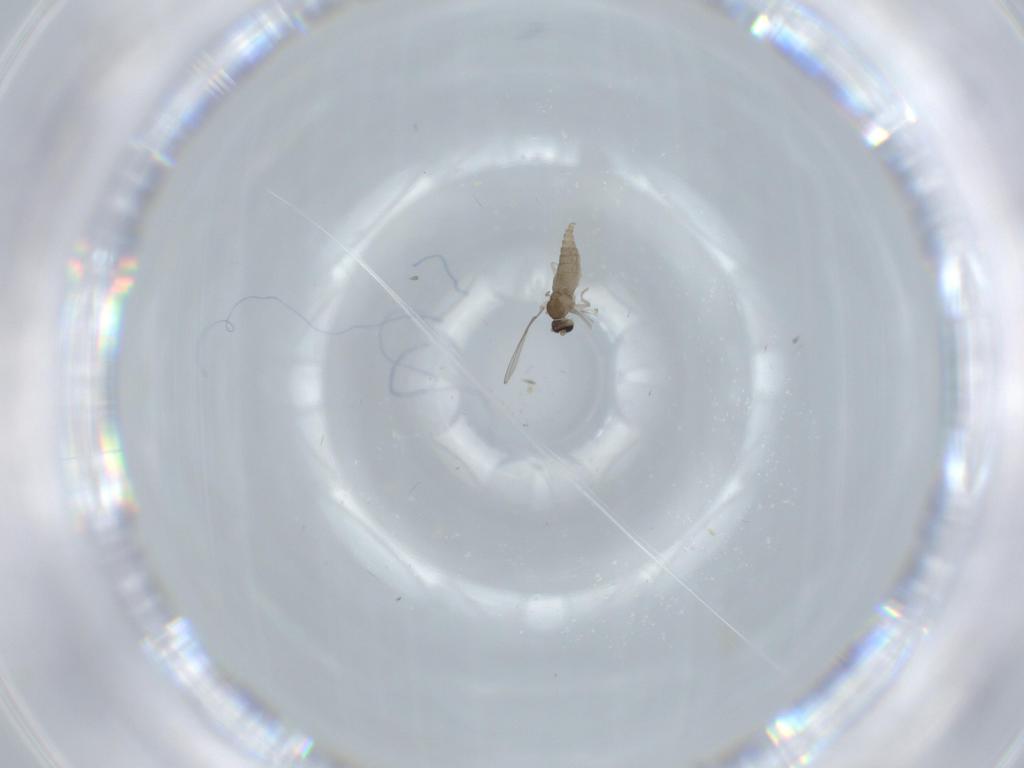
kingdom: Animalia
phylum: Arthropoda
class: Insecta
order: Diptera
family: Cecidomyiidae
